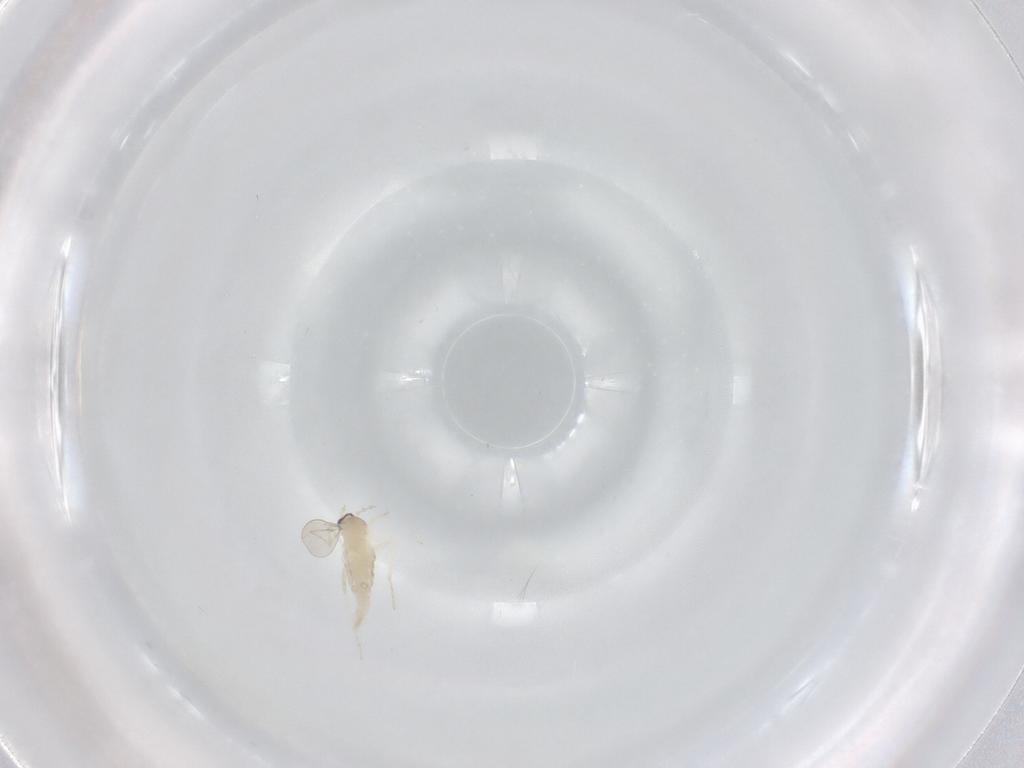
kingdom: Animalia
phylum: Arthropoda
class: Insecta
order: Diptera
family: Cecidomyiidae
